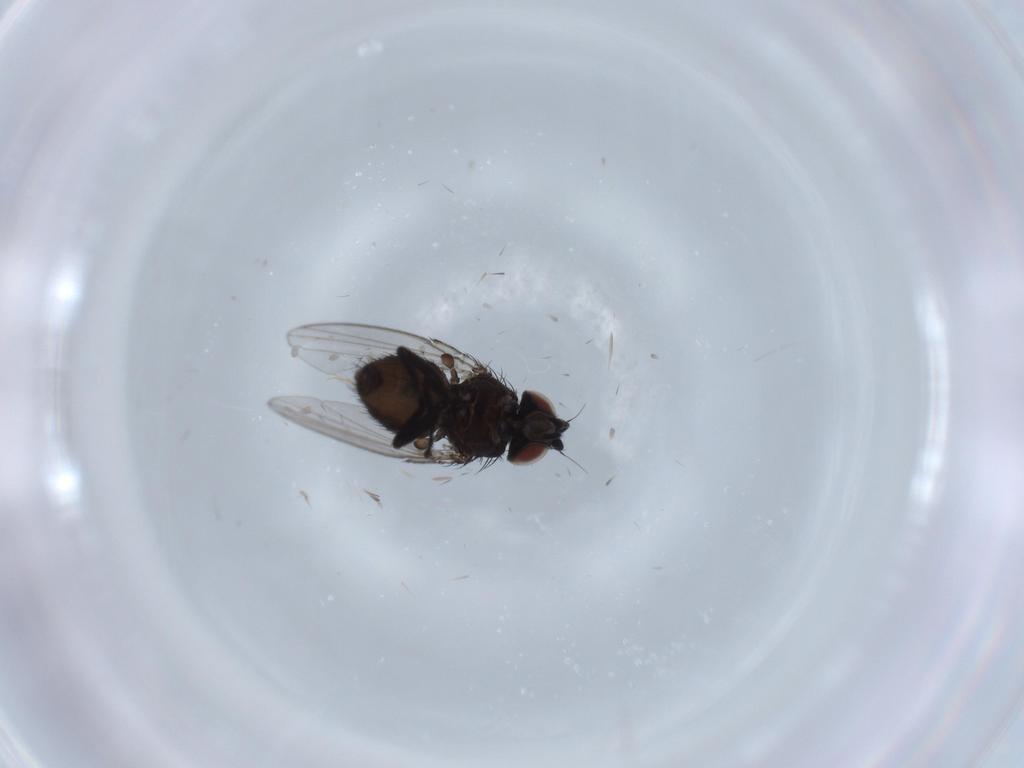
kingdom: Animalia
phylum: Arthropoda
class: Insecta
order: Diptera
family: Milichiidae
